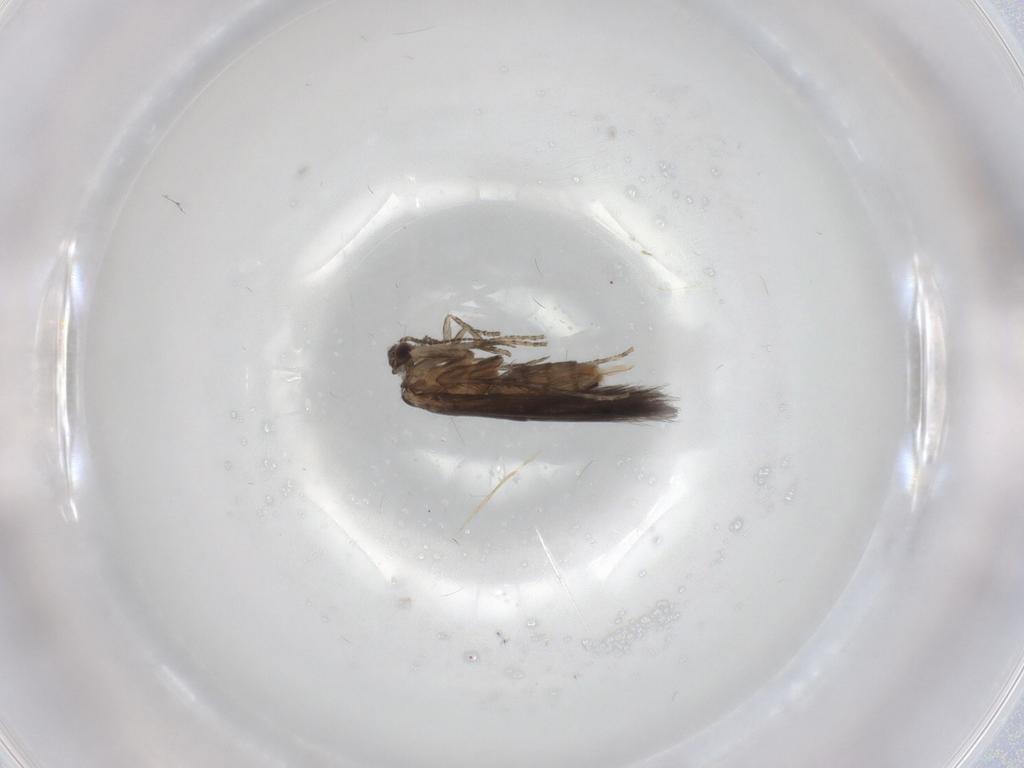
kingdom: Animalia
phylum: Arthropoda
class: Insecta
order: Trichoptera
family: Hydroptilidae
